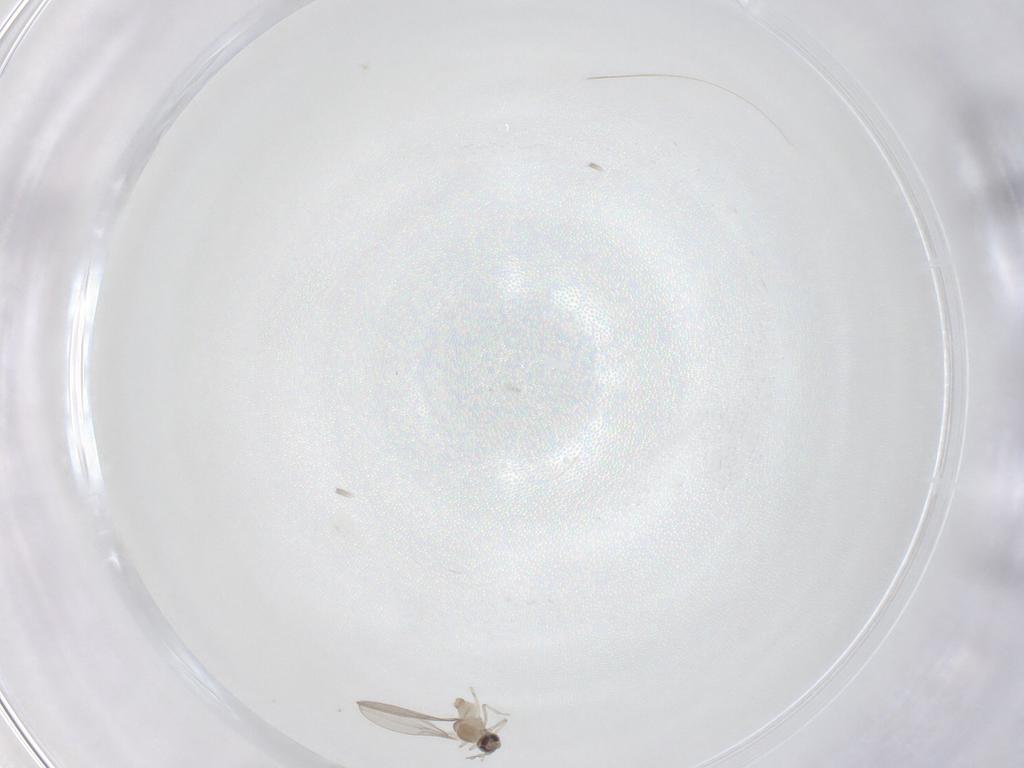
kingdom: Animalia
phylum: Arthropoda
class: Insecta
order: Diptera
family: Cecidomyiidae
